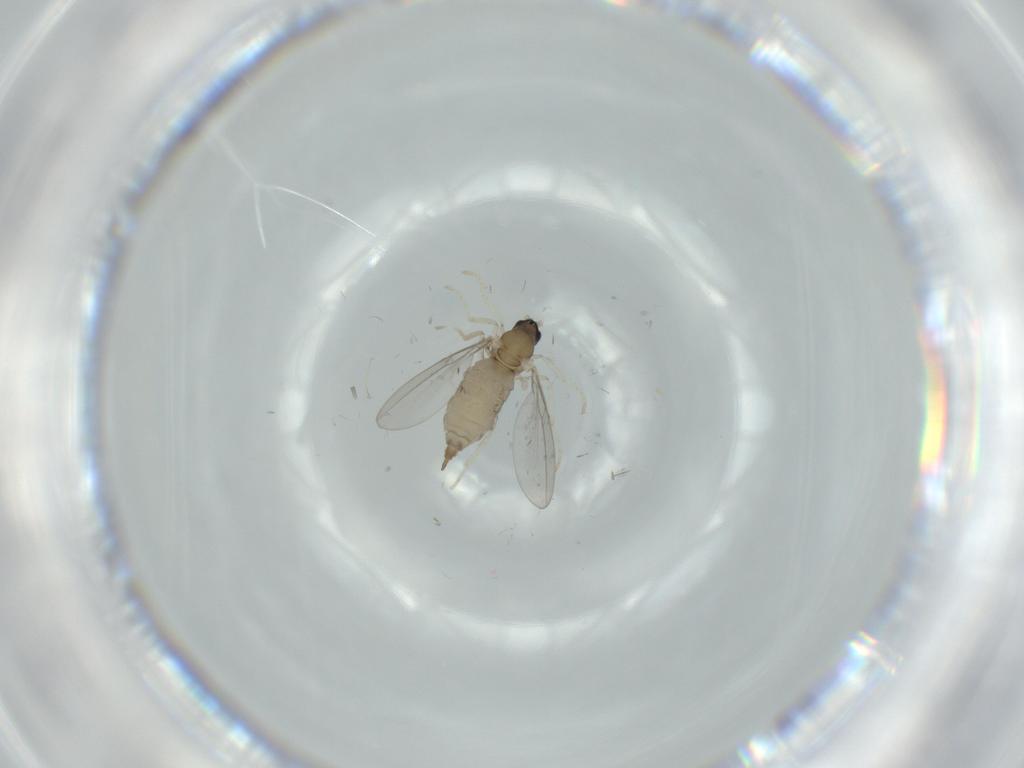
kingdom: Animalia
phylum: Arthropoda
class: Insecta
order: Diptera
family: Cecidomyiidae
